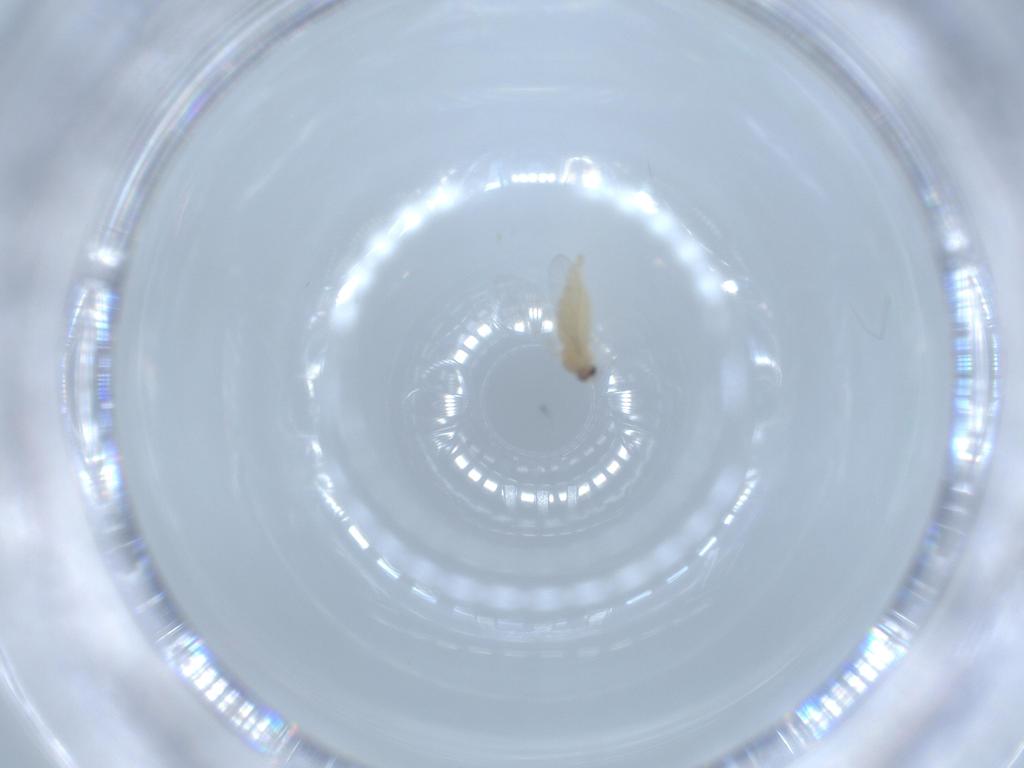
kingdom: Animalia
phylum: Arthropoda
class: Insecta
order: Diptera
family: Cecidomyiidae
